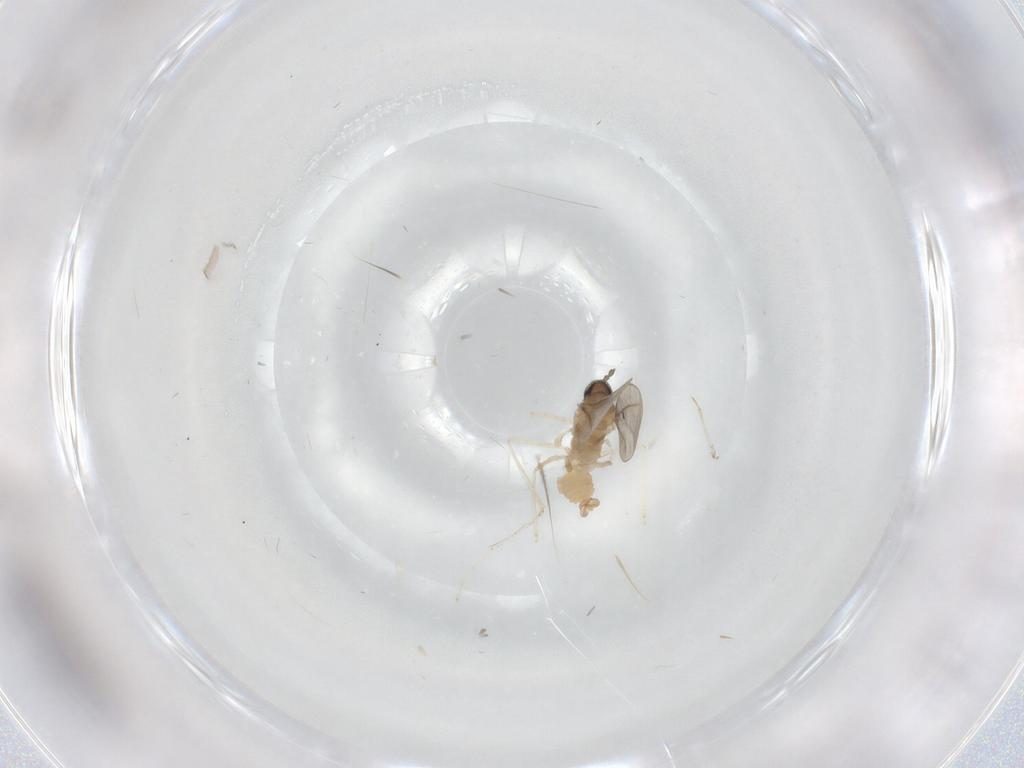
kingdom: Animalia
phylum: Arthropoda
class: Insecta
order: Diptera
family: Cecidomyiidae
